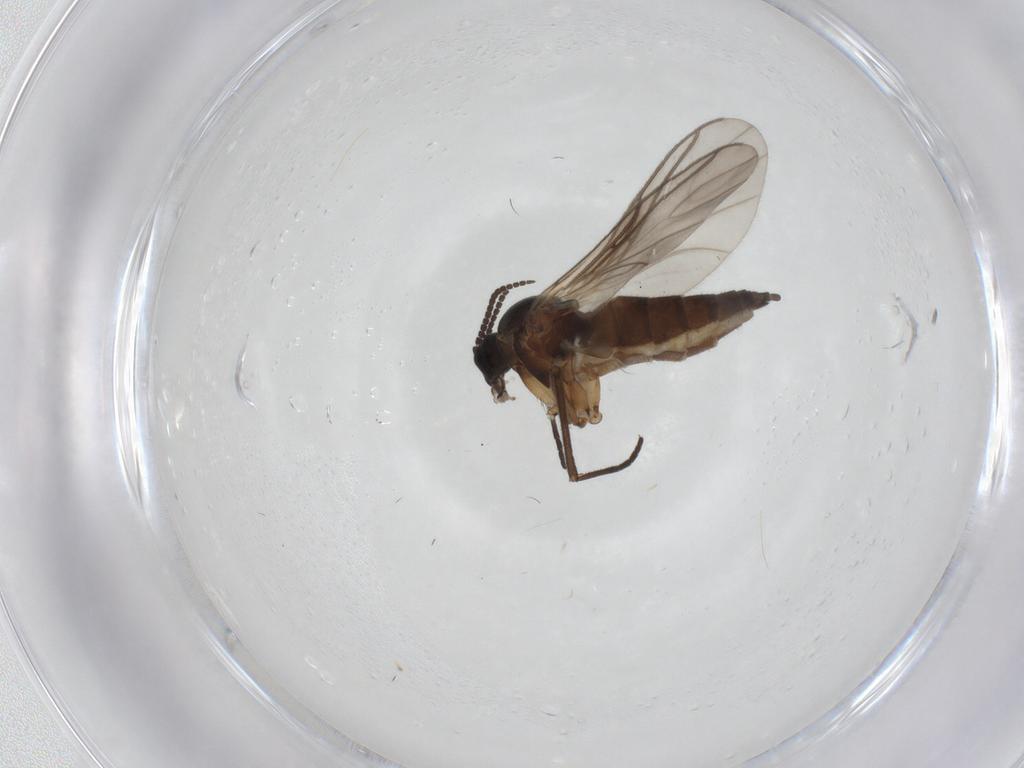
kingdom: Animalia
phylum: Arthropoda
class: Insecta
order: Diptera
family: Sciaridae
